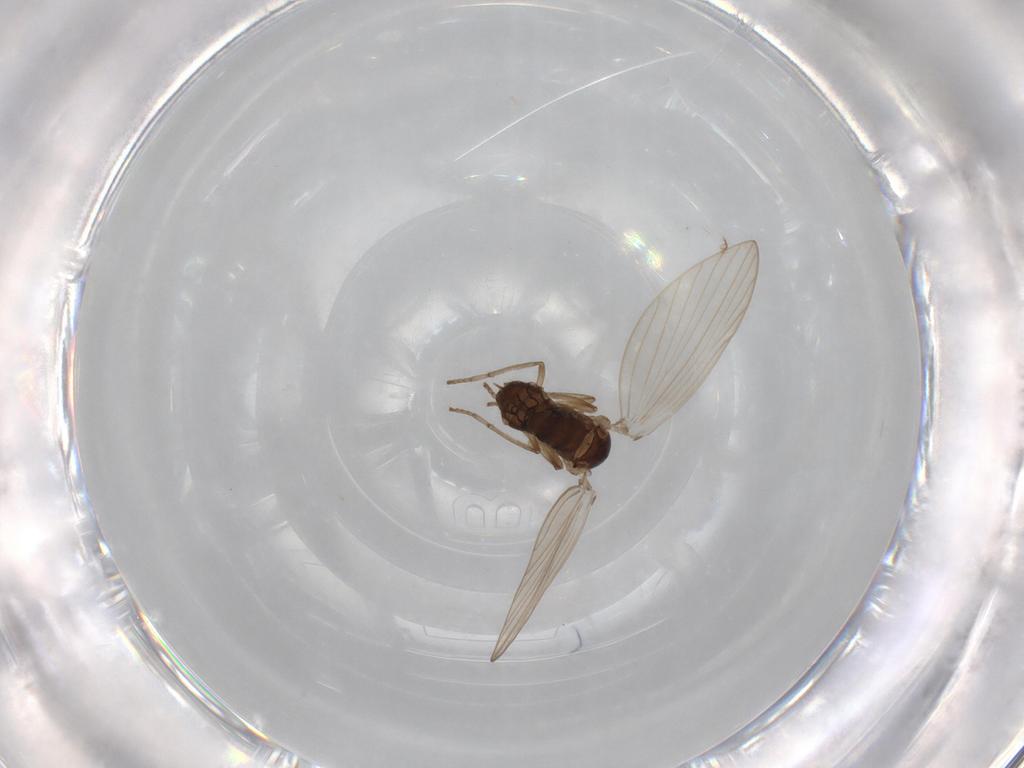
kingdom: Animalia
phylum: Arthropoda
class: Insecta
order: Diptera
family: Psychodidae
